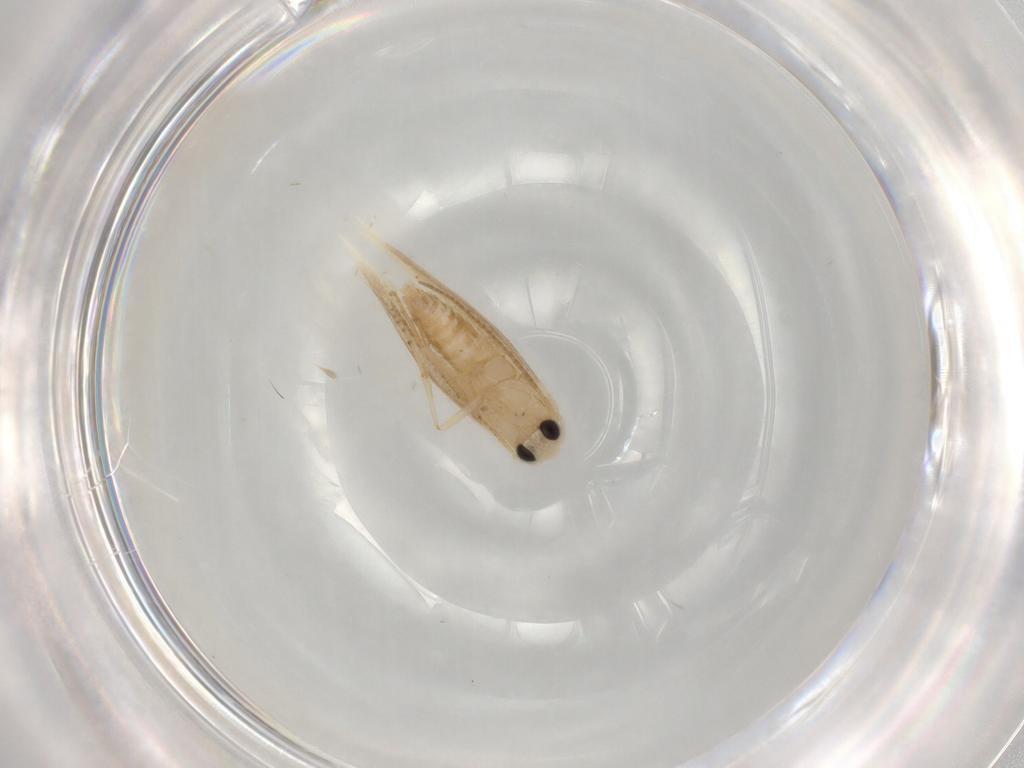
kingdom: Animalia
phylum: Arthropoda
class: Insecta
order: Lepidoptera
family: Bucculatricidae
